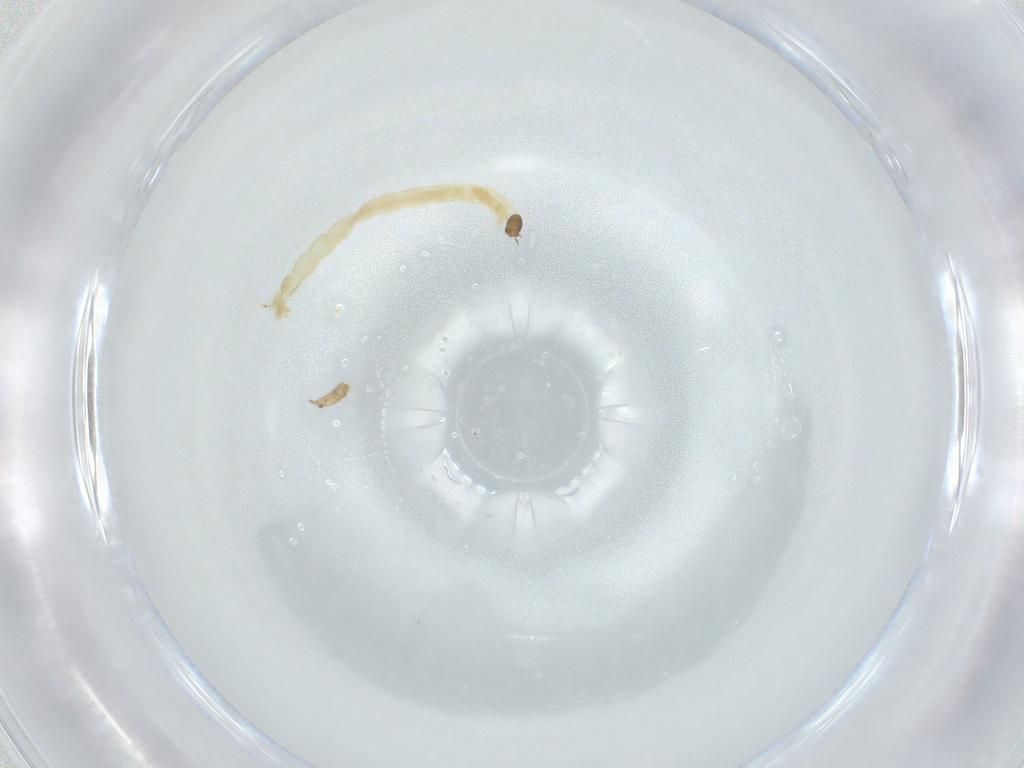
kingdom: Animalia
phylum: Arthropoda
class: Insecta
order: Diptera
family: Chironomidae
